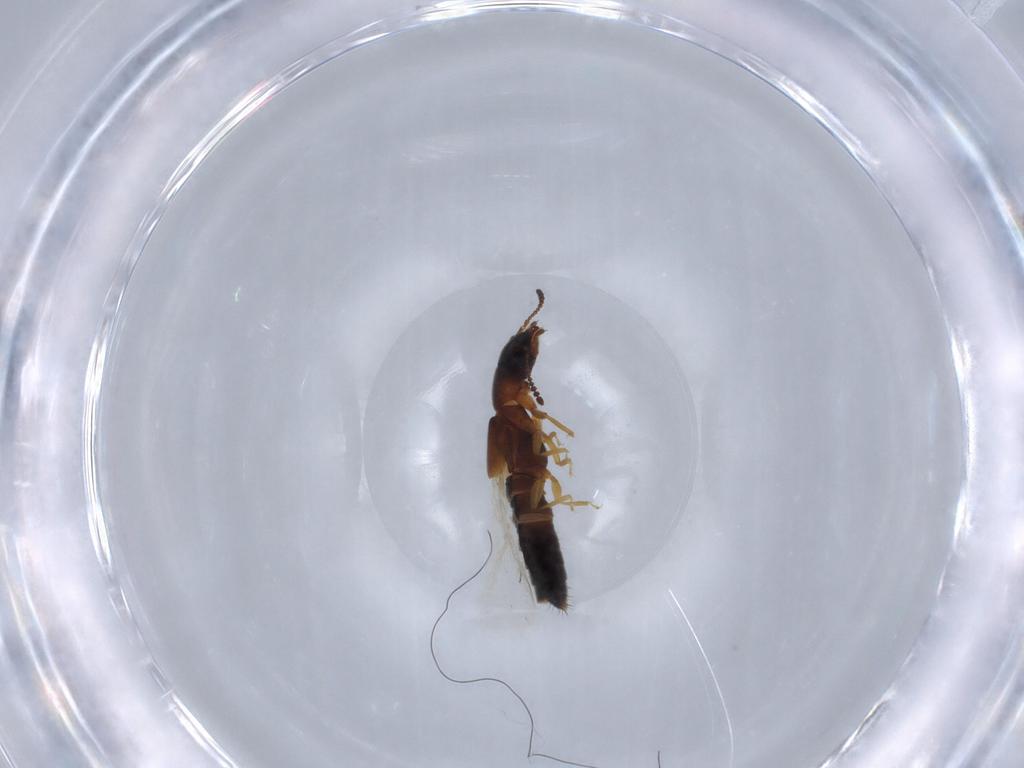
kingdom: Animalia
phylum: Arthropoda
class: Insecta
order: Coleoptera
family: Staphylinidae
